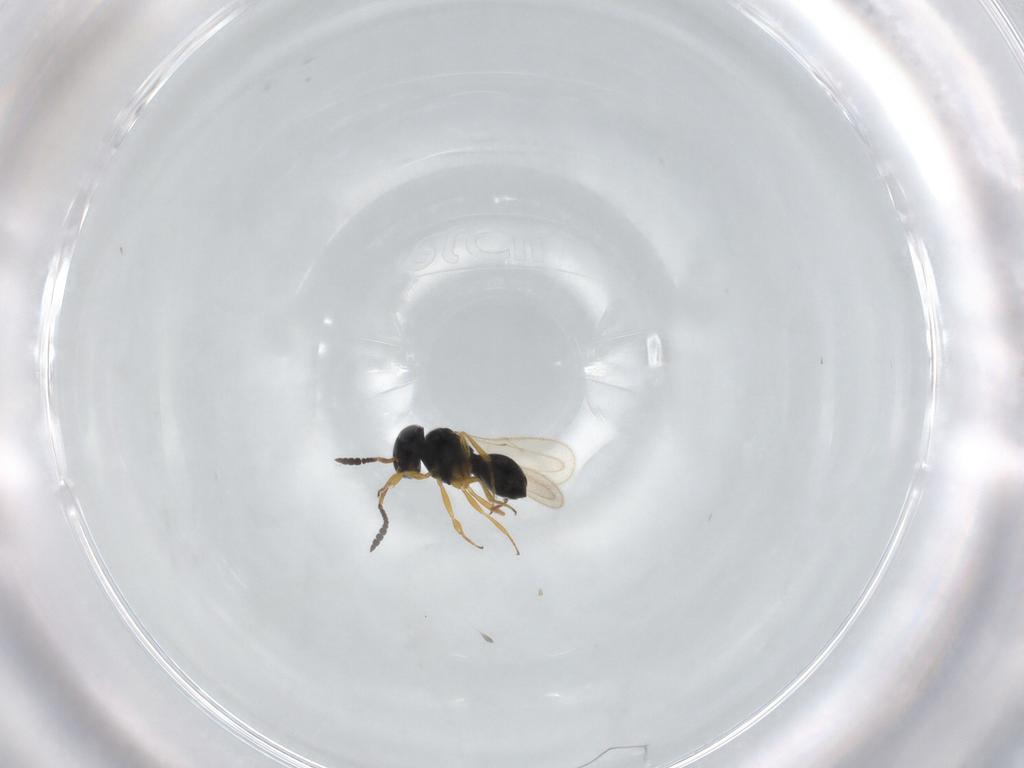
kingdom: Animalia
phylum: Arthropoda
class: Insecta
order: Hymenoptera
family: Scelionidae
